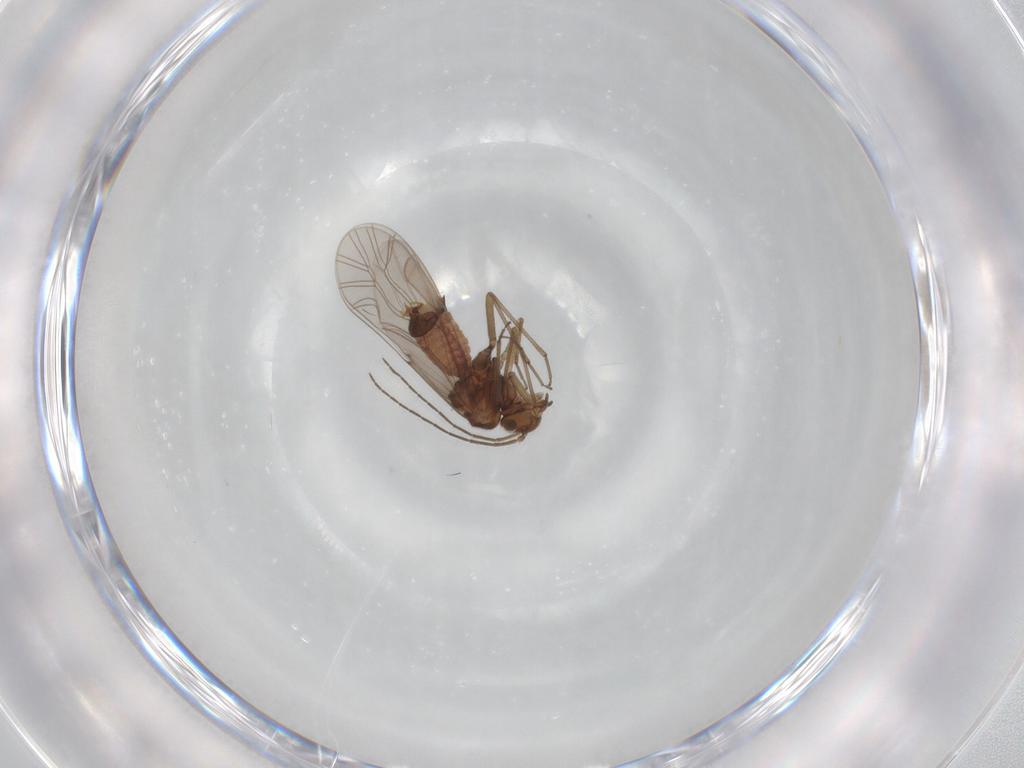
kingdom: Animalia
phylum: Arthropoda
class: Insecta
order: Psocodea
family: Lachesillidae
